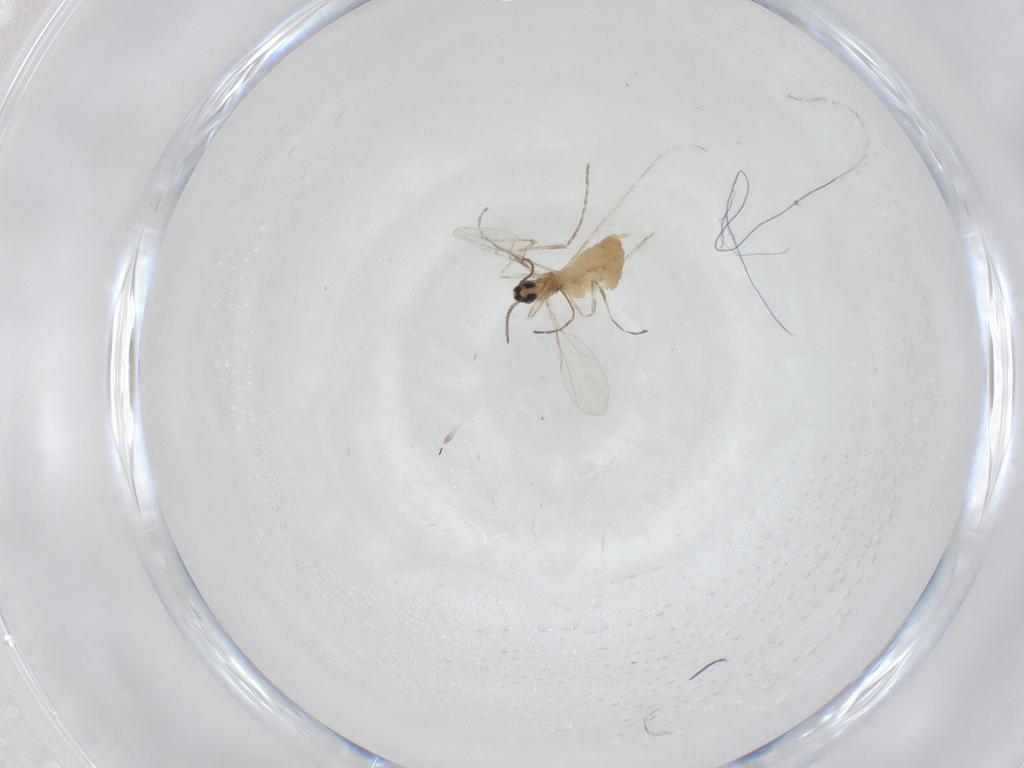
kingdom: Animalia
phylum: Arthropoda
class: Insecta
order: Diptera
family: Cecidomyiidae
